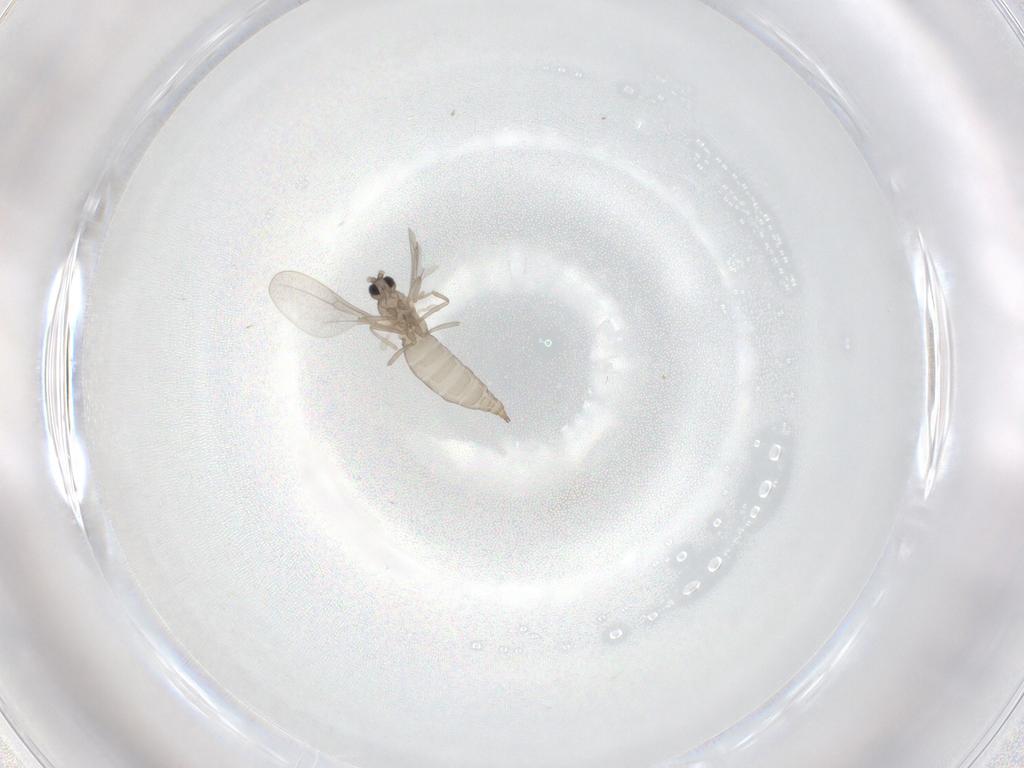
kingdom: Animalia
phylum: Arthropoda
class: Insecta
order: Diptera
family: Cecidomyiidae
